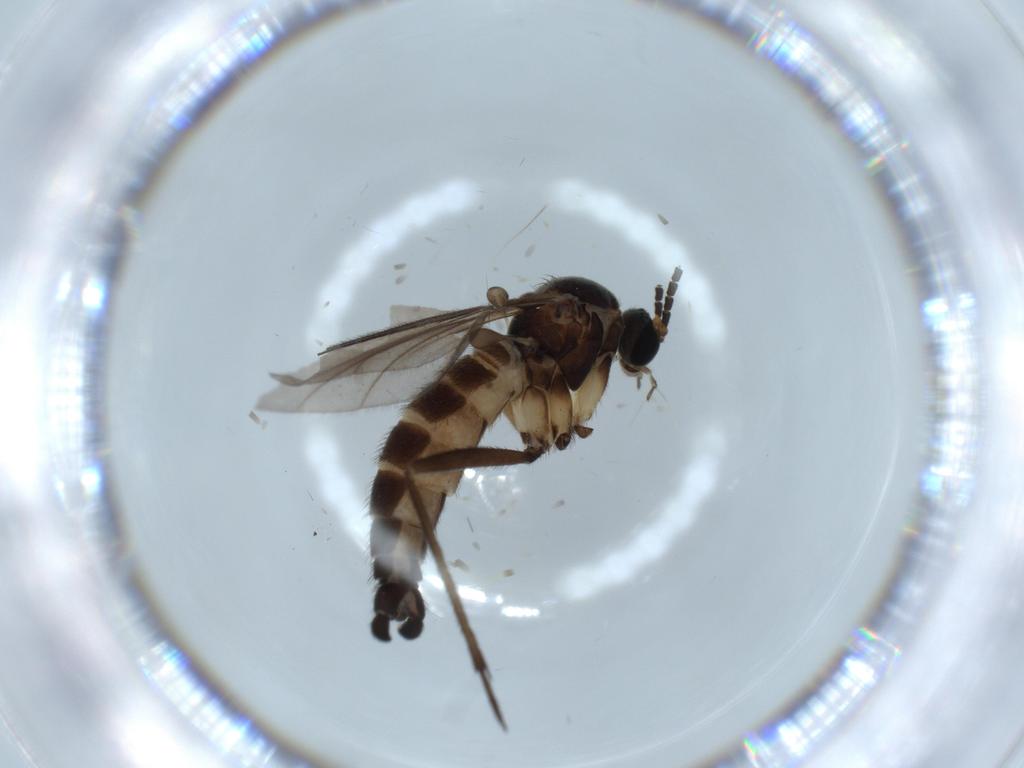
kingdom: Animalia
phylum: Arthropoda
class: Insecta
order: Diptera
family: Sciaridae
